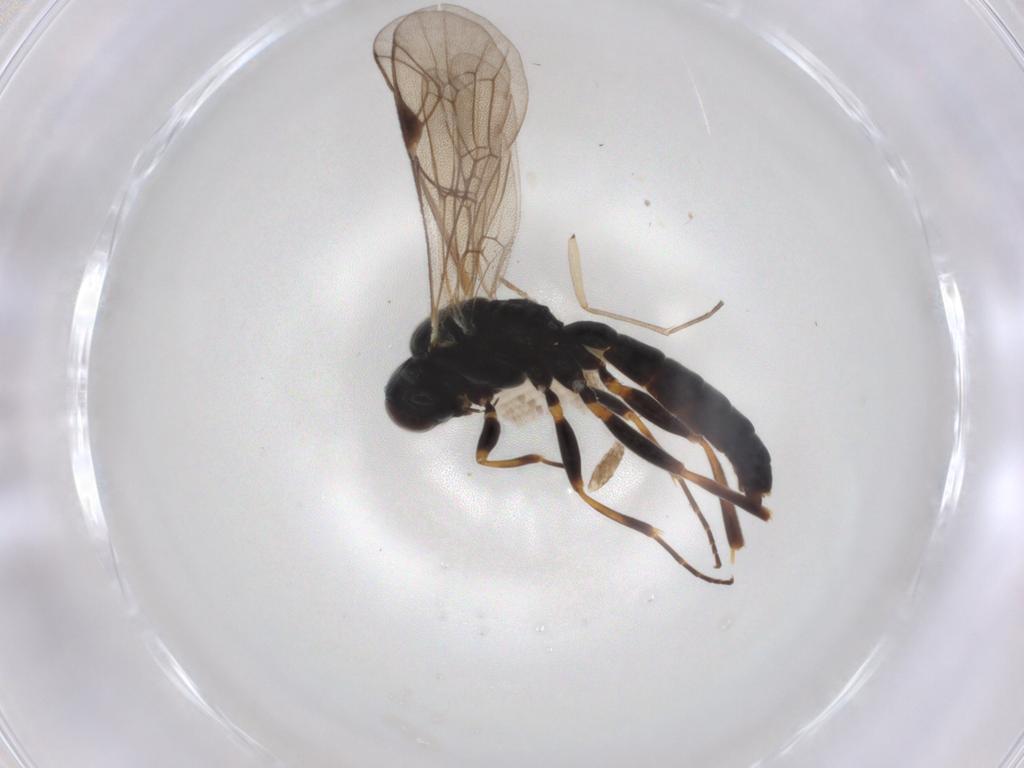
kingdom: Animalia
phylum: Arthropoda
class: Insecta
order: Hymenoptera
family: Ichneumonidae
